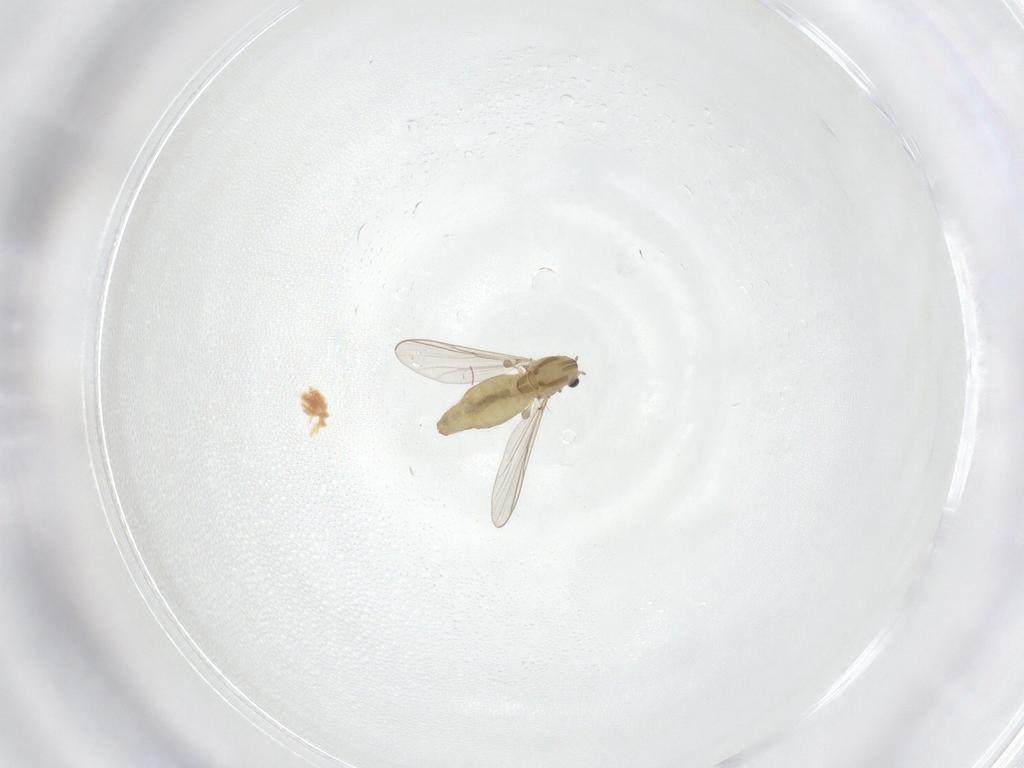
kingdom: Animalia
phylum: Arthropoda
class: Insecta
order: Diptera
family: Chironomidae
